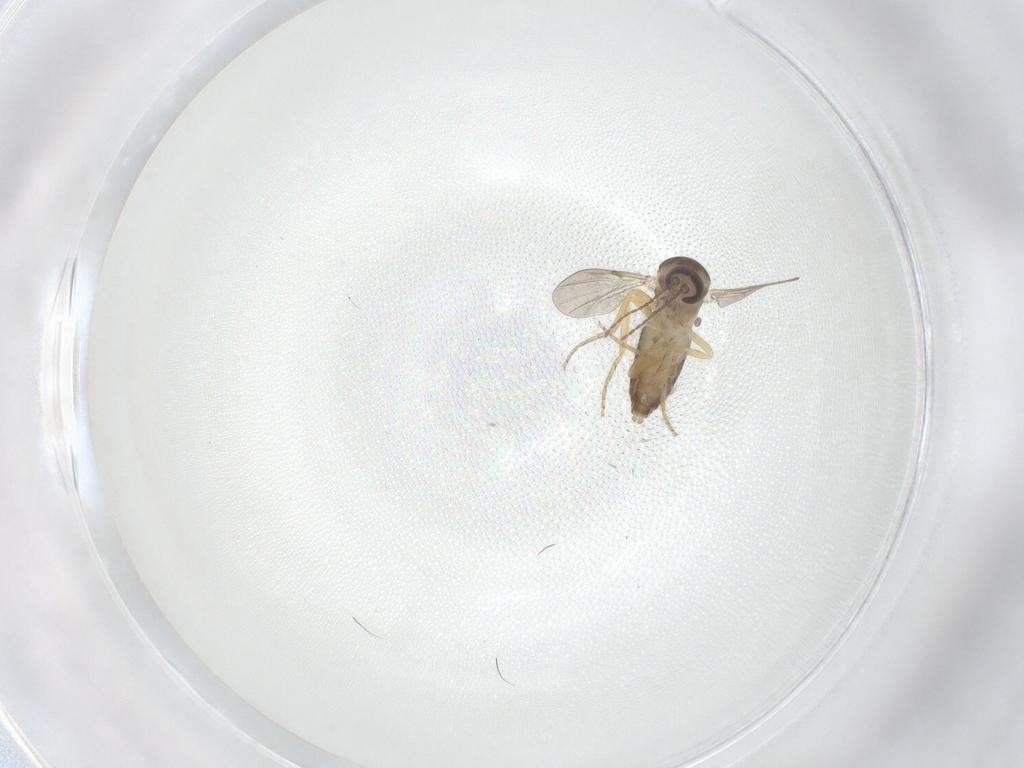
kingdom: Animalia
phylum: Arthropoda
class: Insecta
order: Diptera
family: Ceratopogonidae
